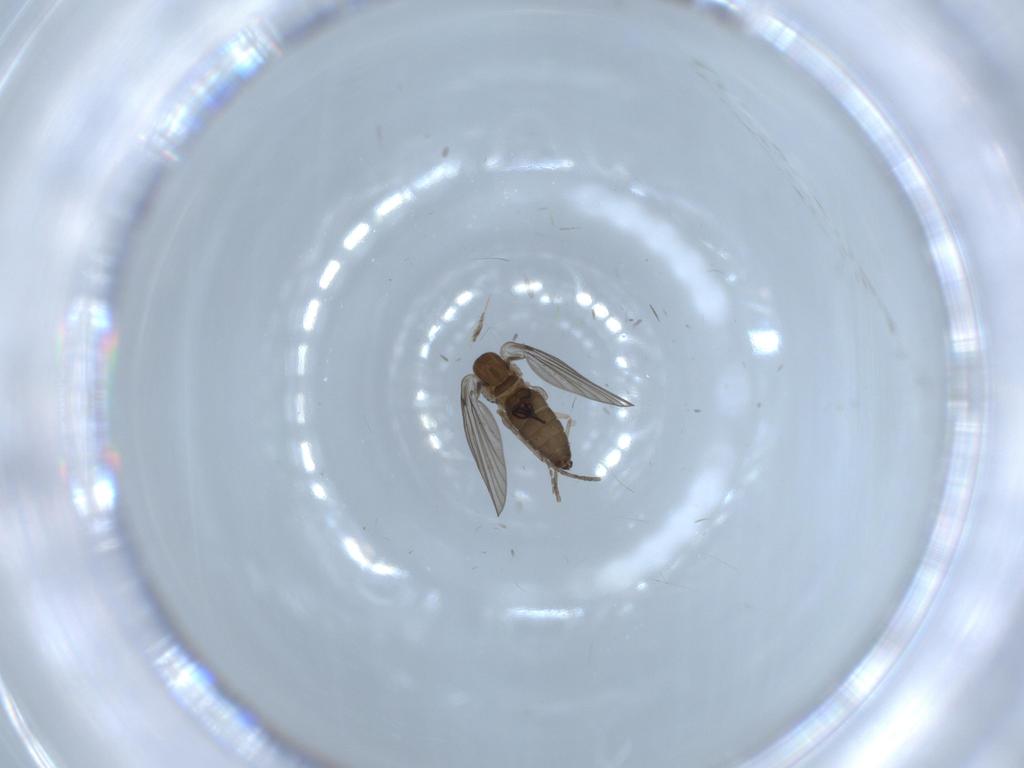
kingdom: Animalia
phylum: Arthropoda
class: Insecta
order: Diptera
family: Psychodidae
